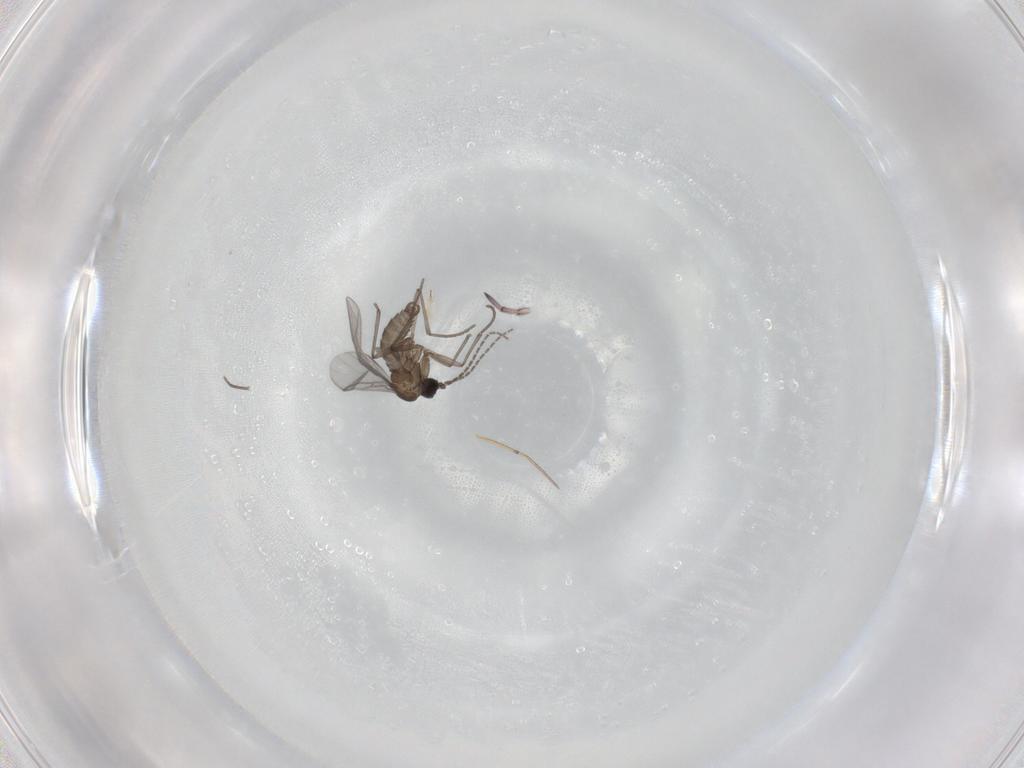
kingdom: Animalia
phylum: Arthropoda
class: Insecta
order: Diptera
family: Sciaridae
